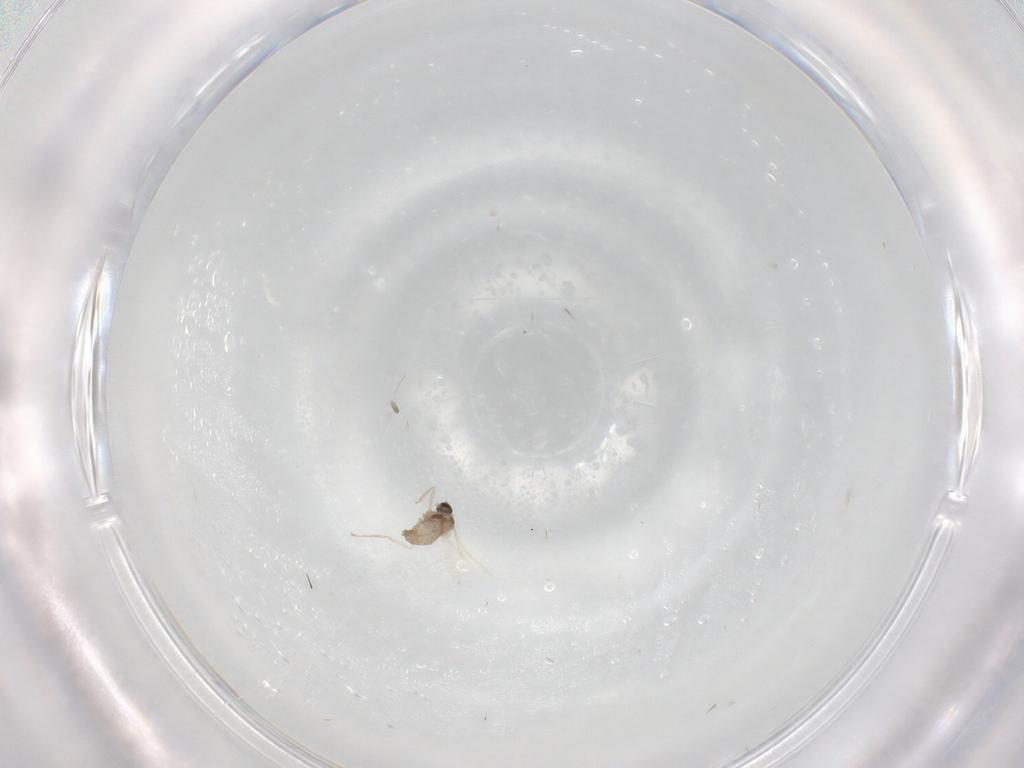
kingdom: Animalia
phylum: Arthropoda
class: Insecta
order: Diptera
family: Cecidomyiidae
